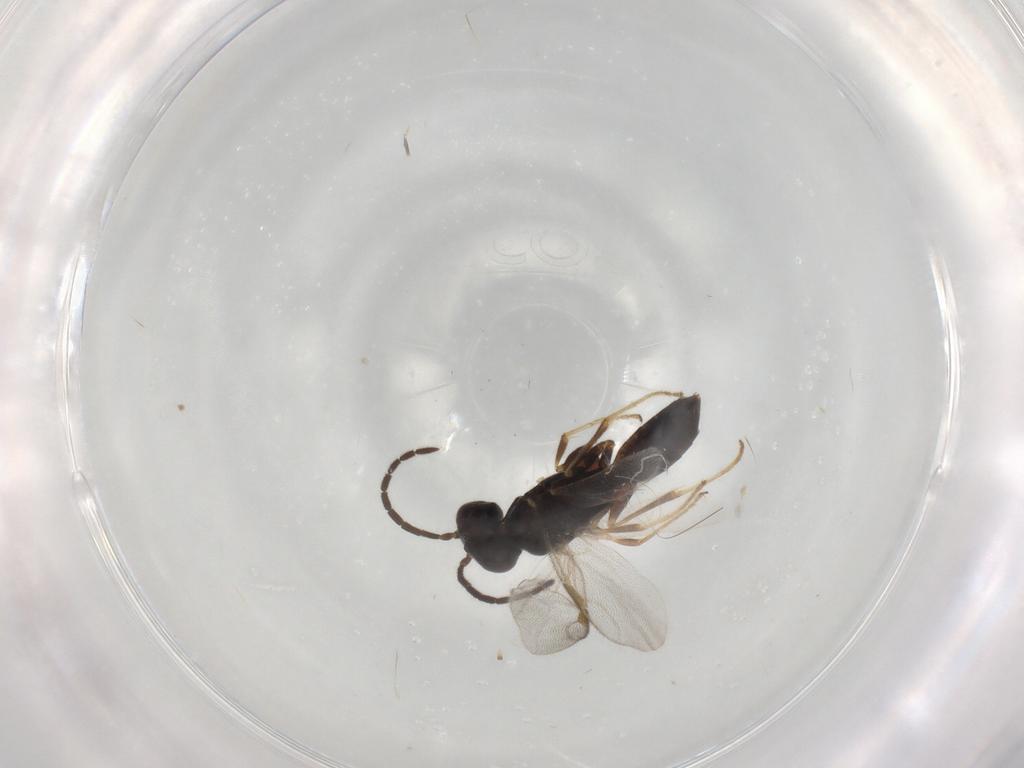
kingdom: Animalia
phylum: Arthropoda
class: Insecta
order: Hymenoptera
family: Dryinidae
